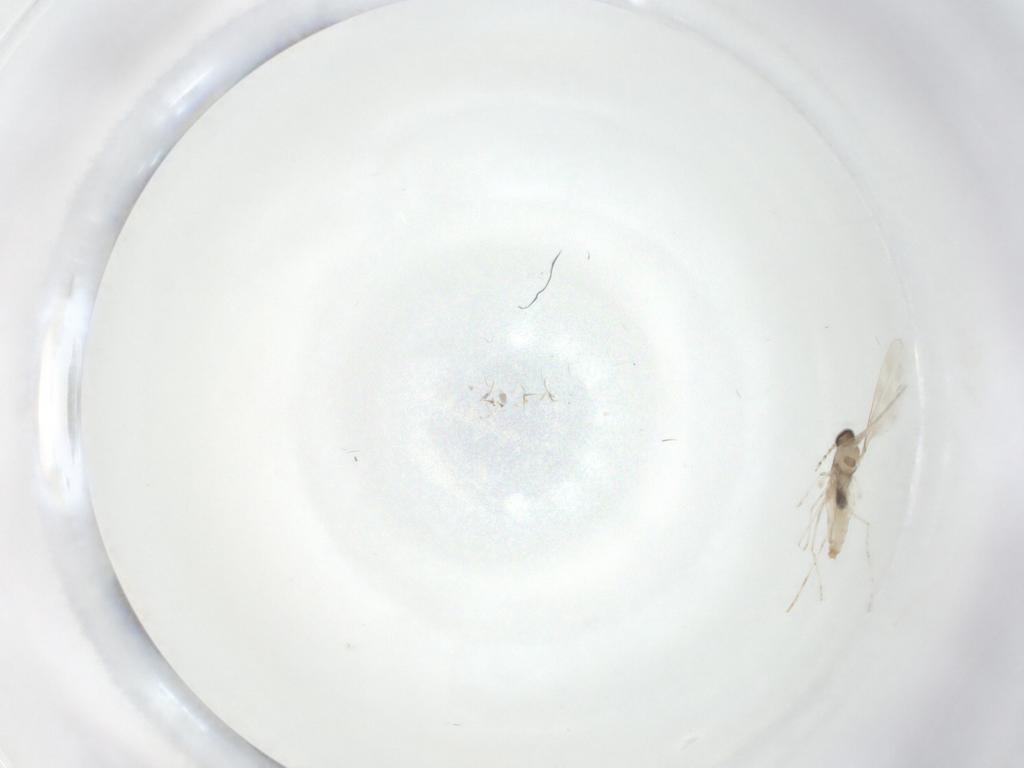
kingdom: Animalia
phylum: Arthropoda
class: Insecta
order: Diptera
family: Cecidomyiidae
